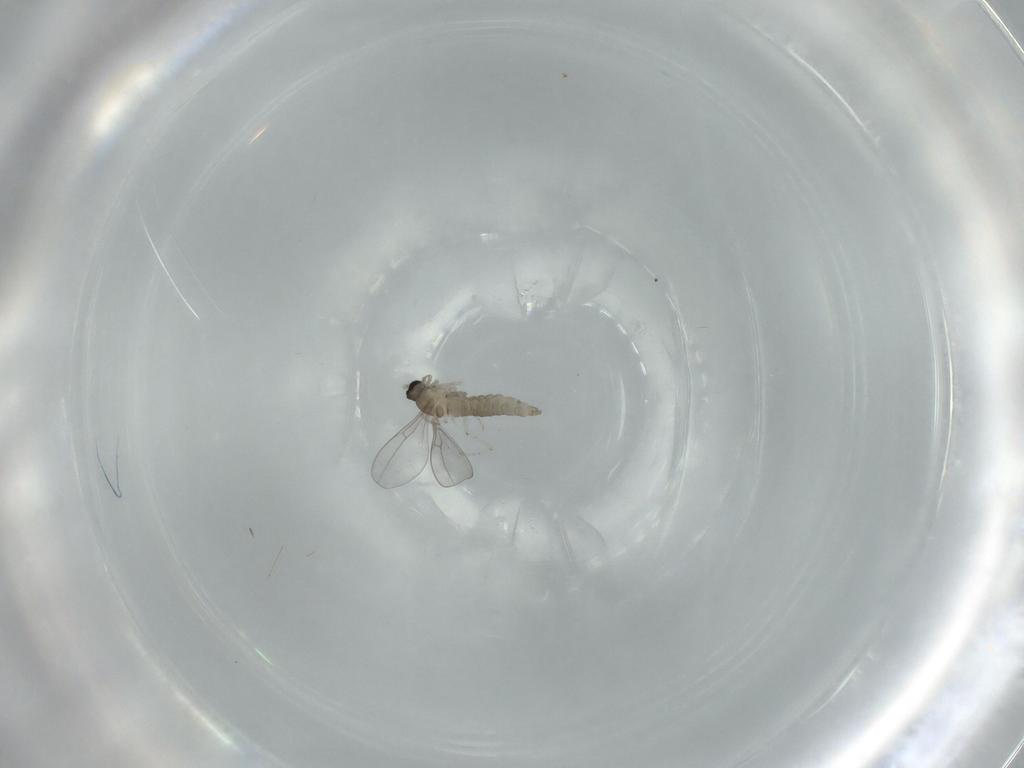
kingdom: Animalia
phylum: Arthropoda
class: Insecta
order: Diptera
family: Cecidomyiidae
